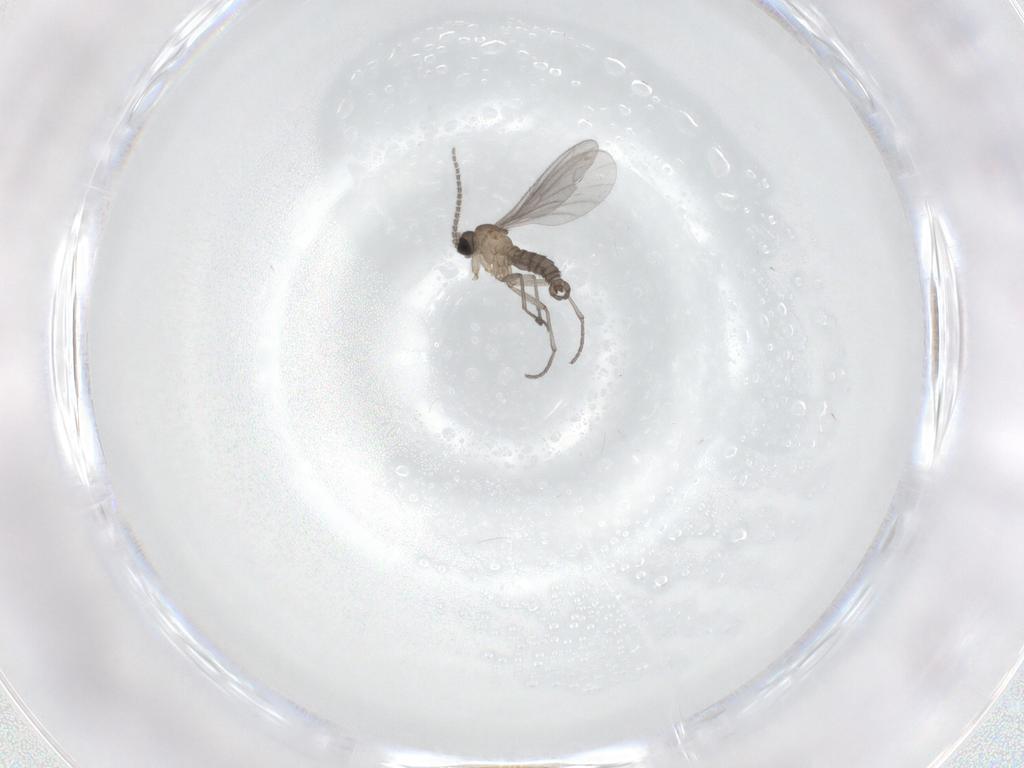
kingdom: Animalia
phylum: Arthropoda
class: Insecta
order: Diptera
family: Sciaridae
